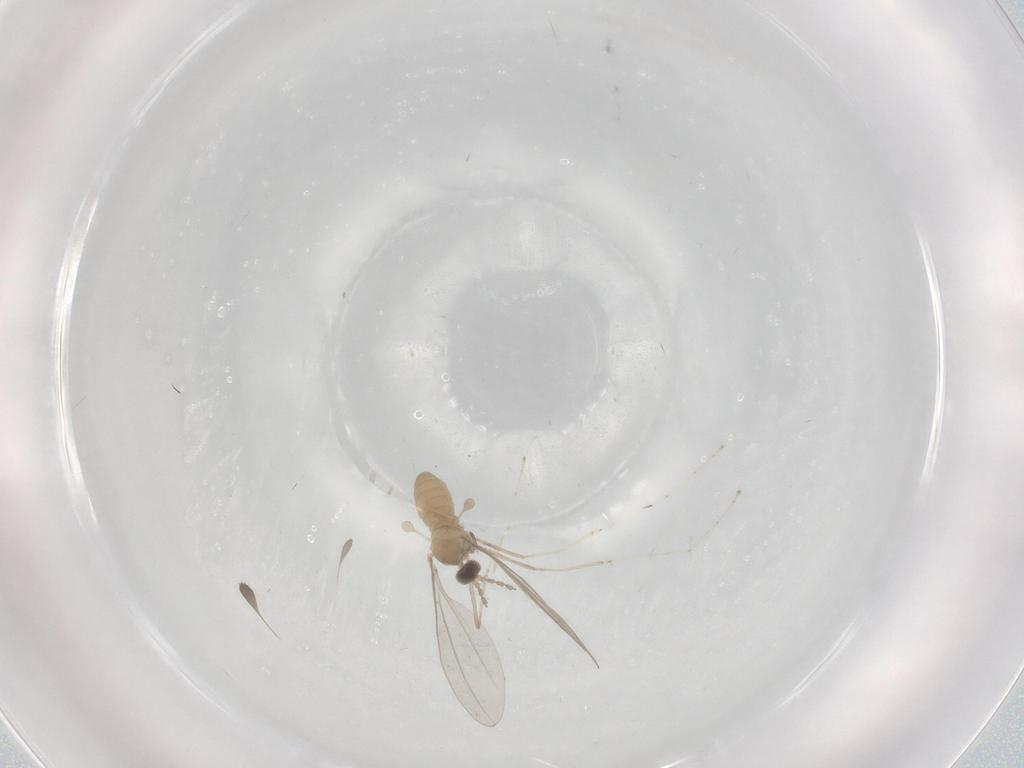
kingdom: Animalia
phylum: Arthropoda
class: Insecta
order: Diptera
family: Cecidomyiidae
